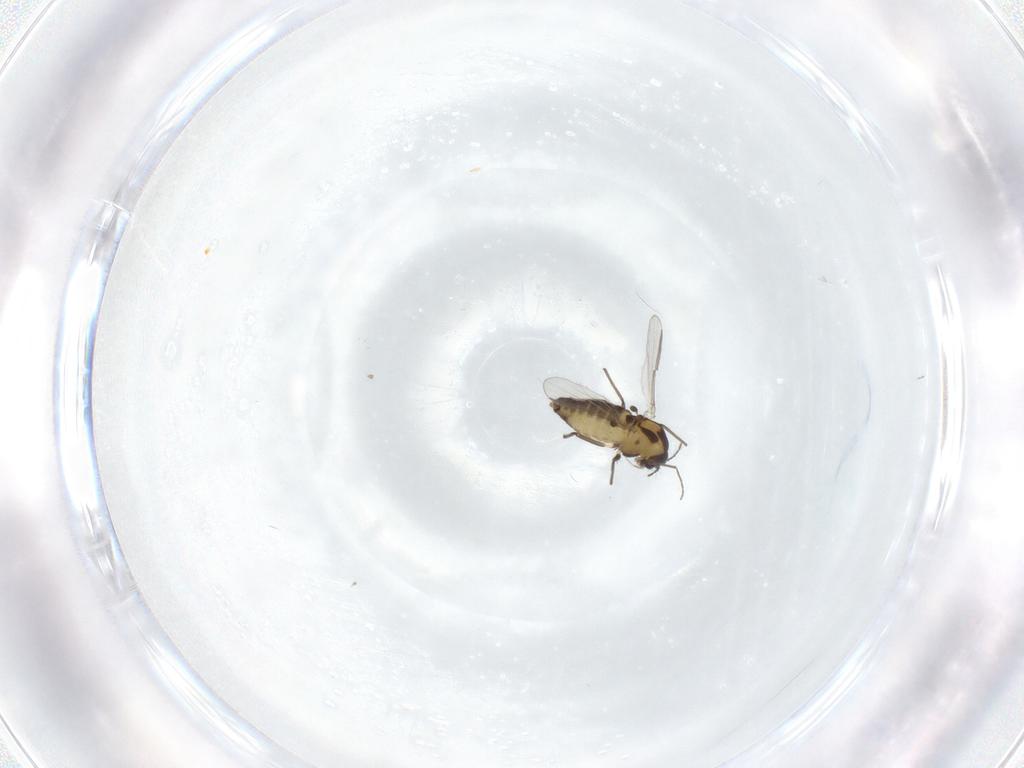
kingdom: Animalia
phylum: Arthropoda
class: Insecta
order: Diptera
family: Chironomidae
